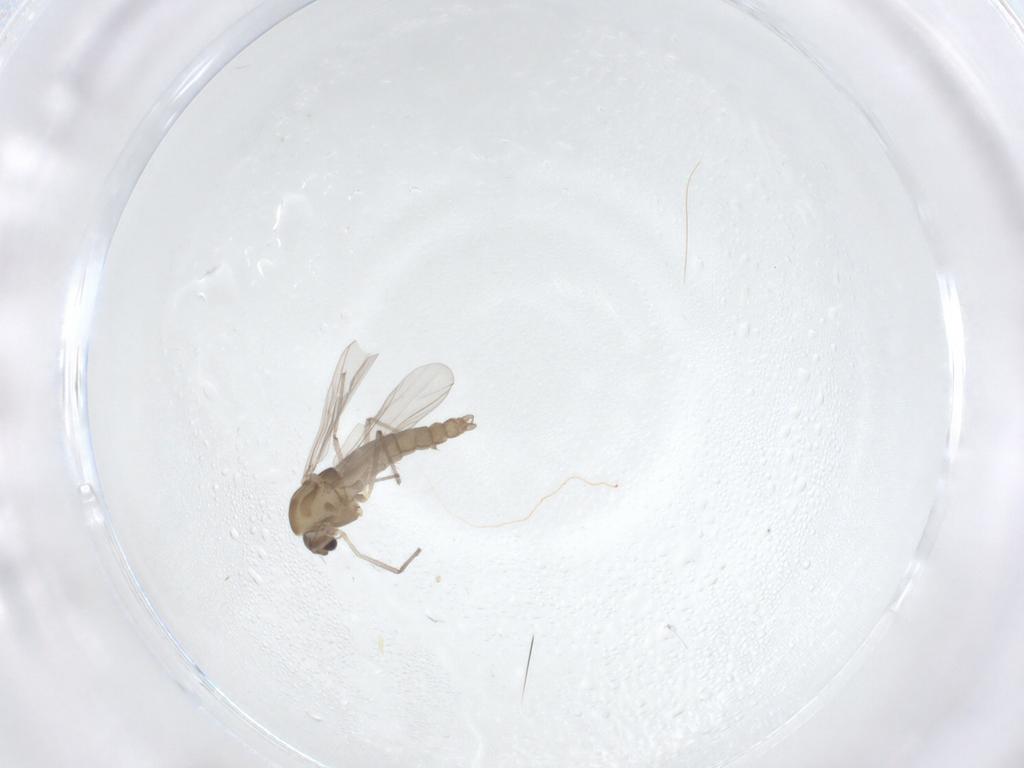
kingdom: Animalia
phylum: Arthropoda
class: Insecta
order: Diptera
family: Chironomidae
